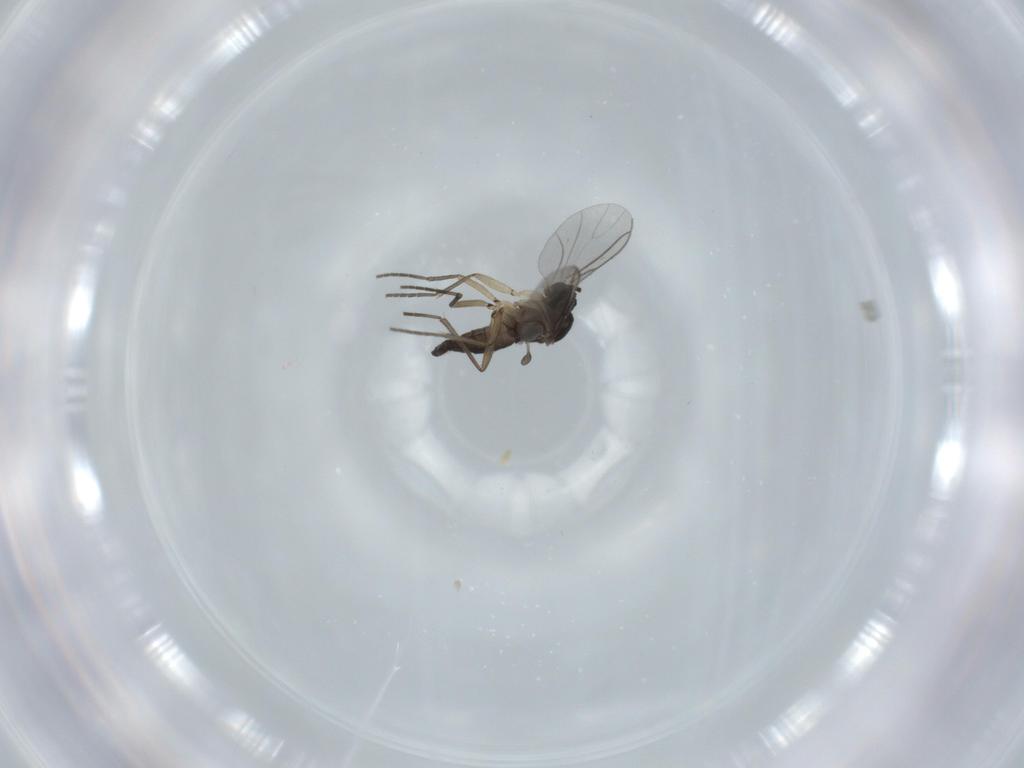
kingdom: Animalia
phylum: Arthropoda
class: Insecta
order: Diptera
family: Sciaridae
